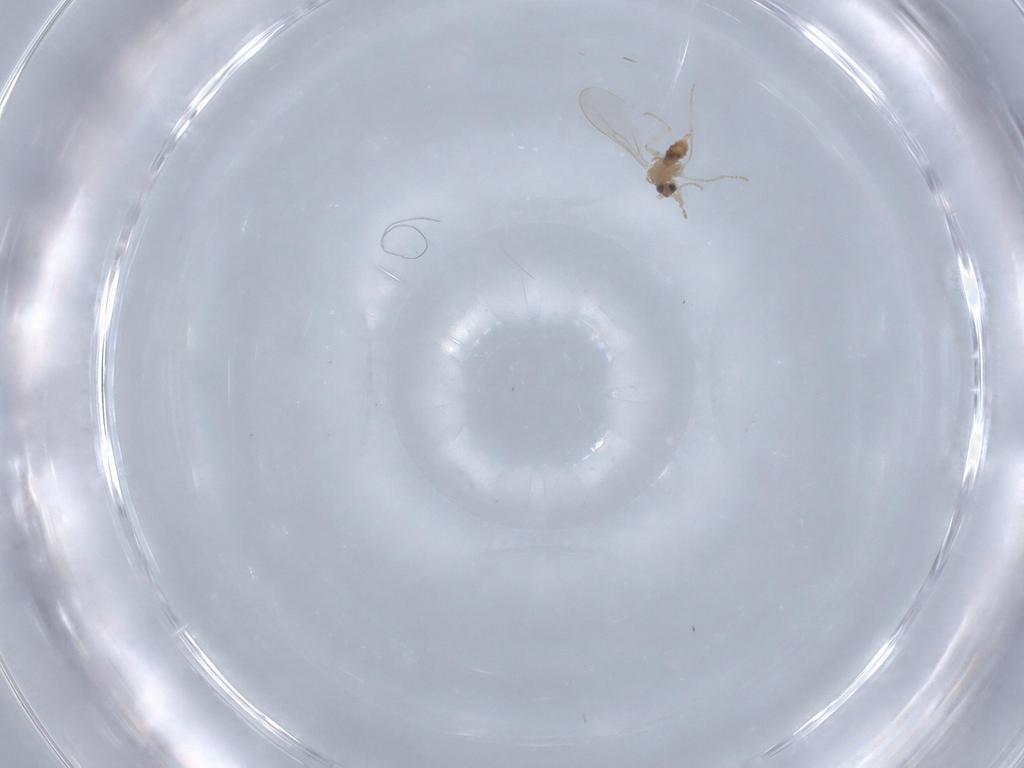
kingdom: Animalia
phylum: Arthropoda
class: Insecta
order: Diptera
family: Cecidomyiidae
